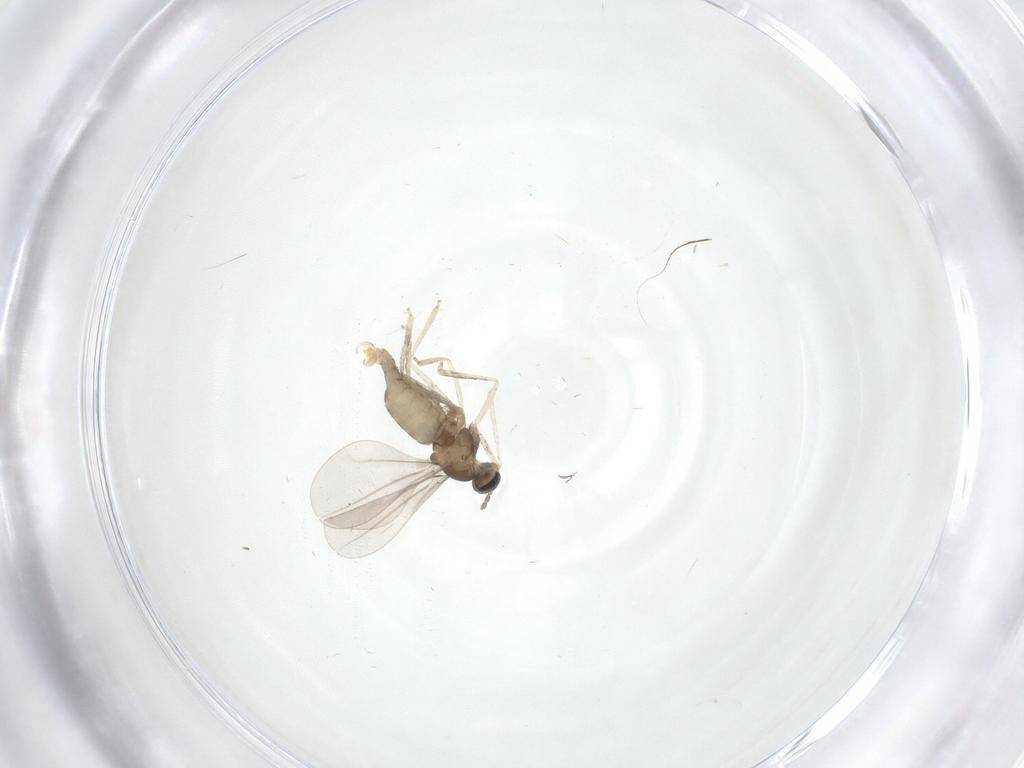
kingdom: Animalia
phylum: Arthropoda
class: Insecta
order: Diptera
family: Cecidomyiidae
